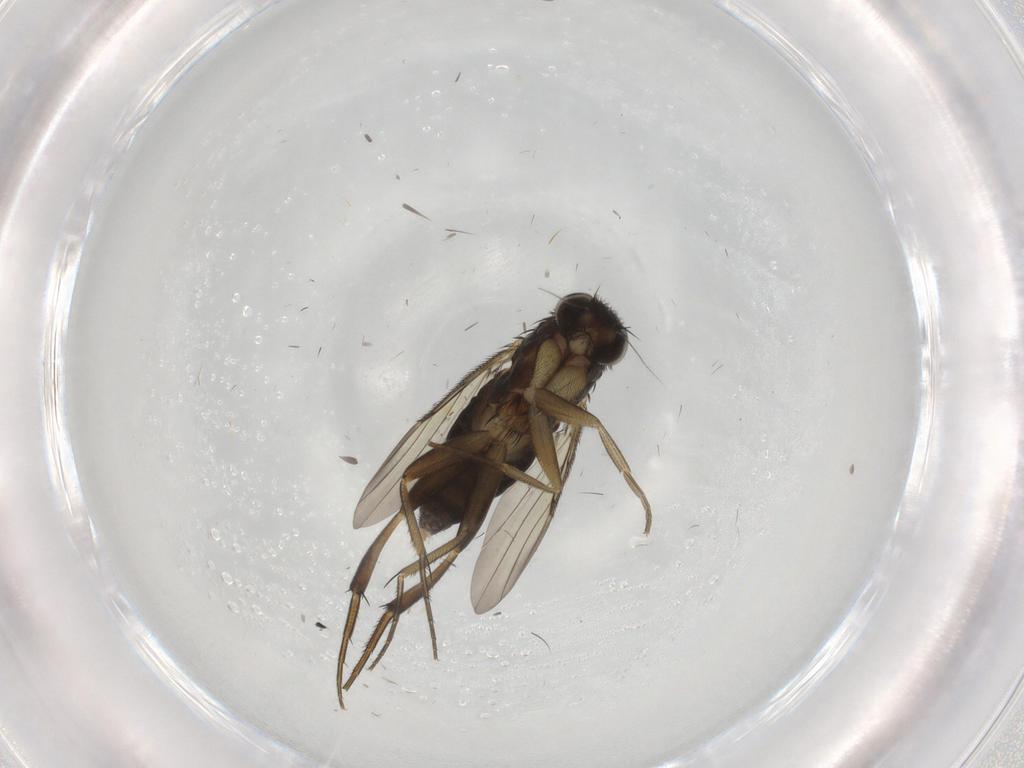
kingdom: Animalia
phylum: Arthropoda
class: Insecta
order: Diptera
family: Phoridae
